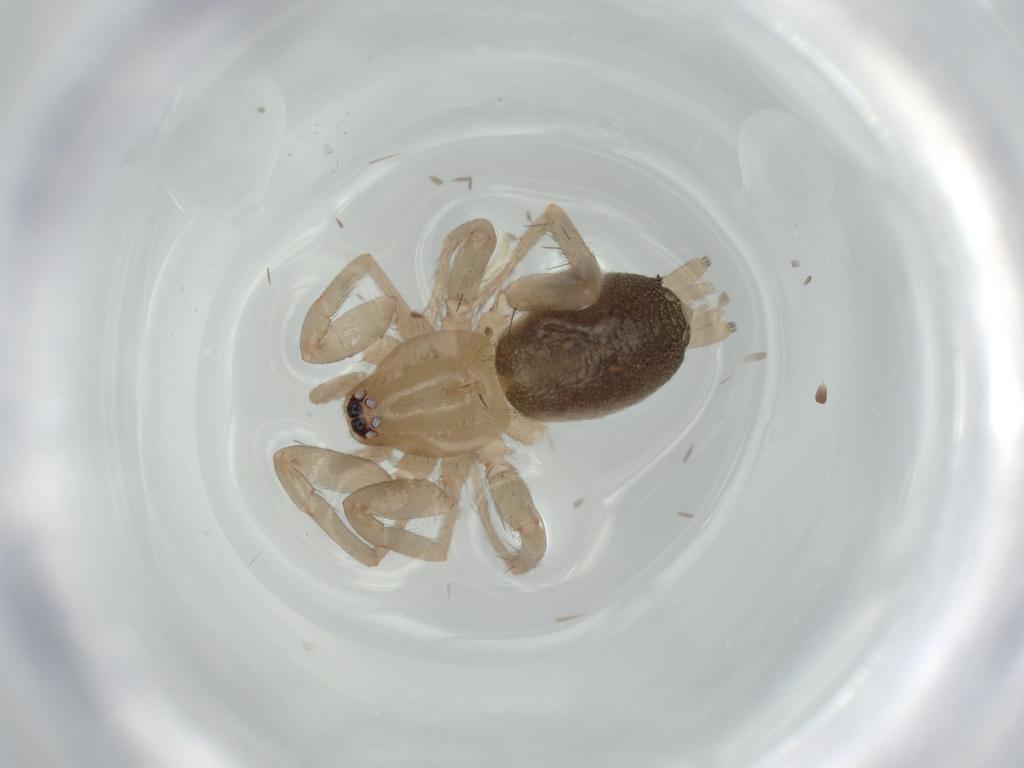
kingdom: Animalia
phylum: Arthropoda
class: Arachnida
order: Araneae
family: Gnaphosidae
